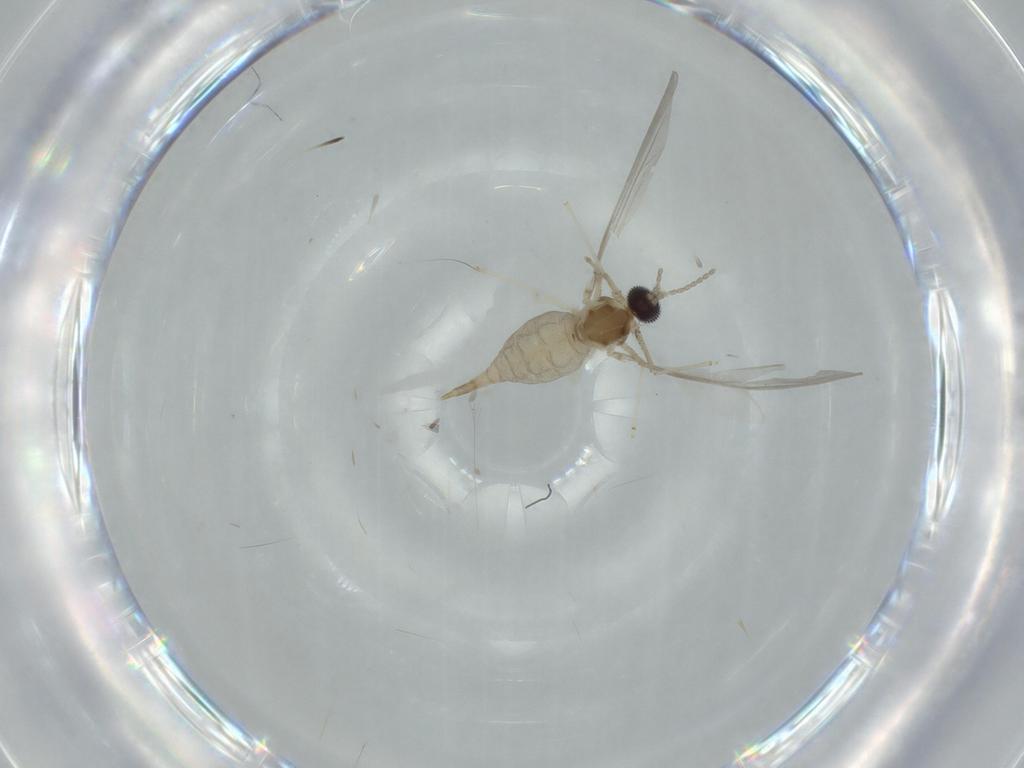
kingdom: Animalia
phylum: Arthropoda
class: Insecta
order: Diptera
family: Cecidomyiidae
